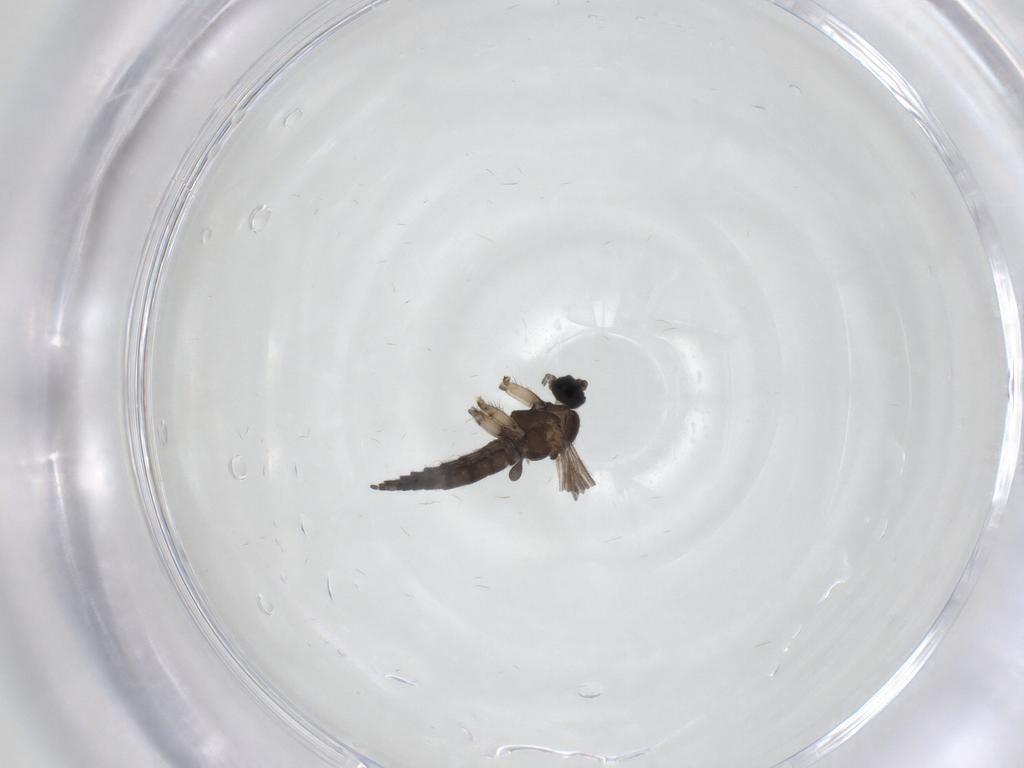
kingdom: Animalia
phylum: Arthropoda
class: Insecta
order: Diptera
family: Sciaridae
